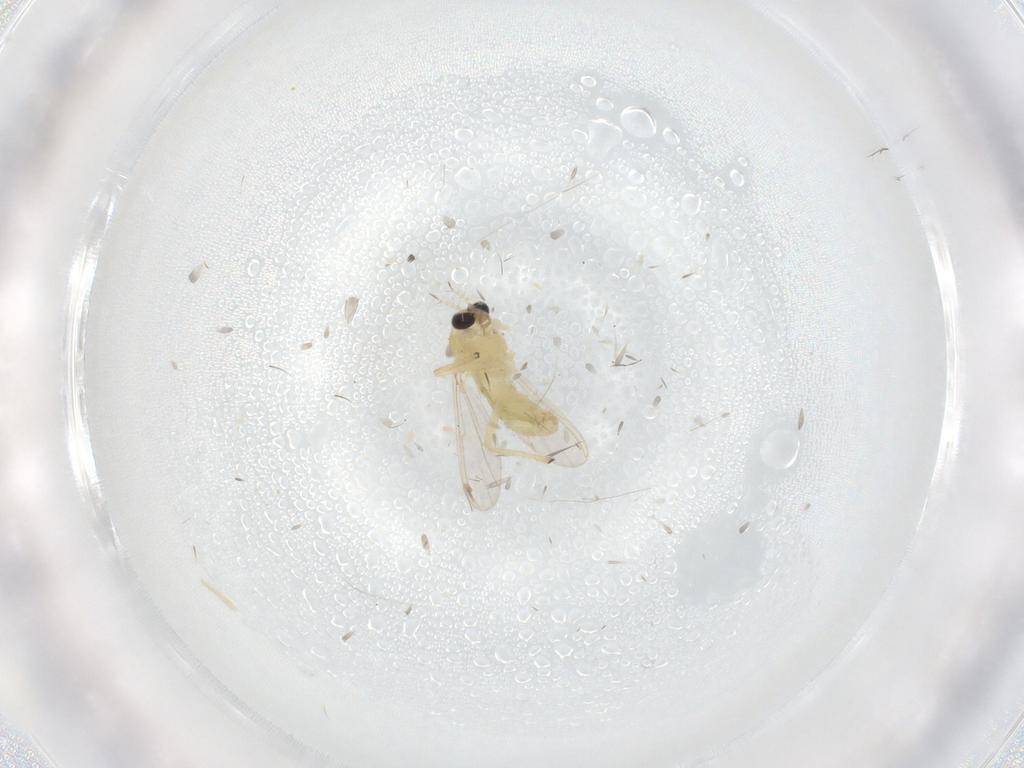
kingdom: Animalia
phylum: Arthropoda
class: Insecta
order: Diptera
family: Chironomidae
